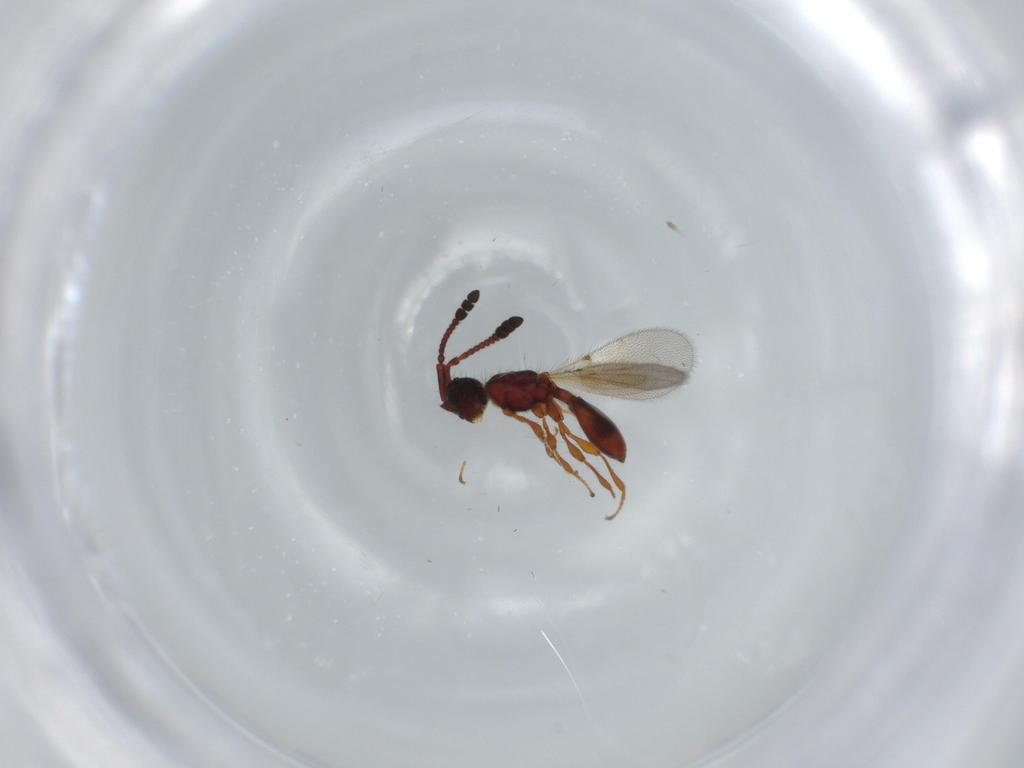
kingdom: Animalia
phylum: Arthropoda
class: Insecta
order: Hymenoptera
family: Diapriidae
